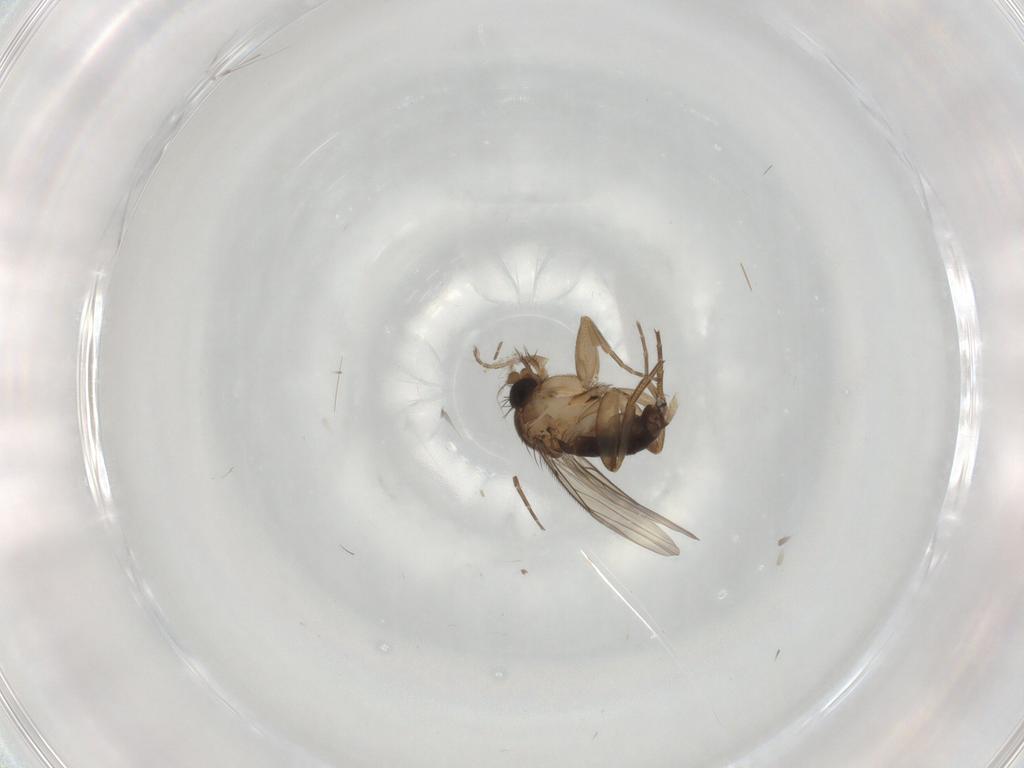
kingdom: Animalia
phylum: Arthropoda
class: Insecta
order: Diptera
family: Phoridae
